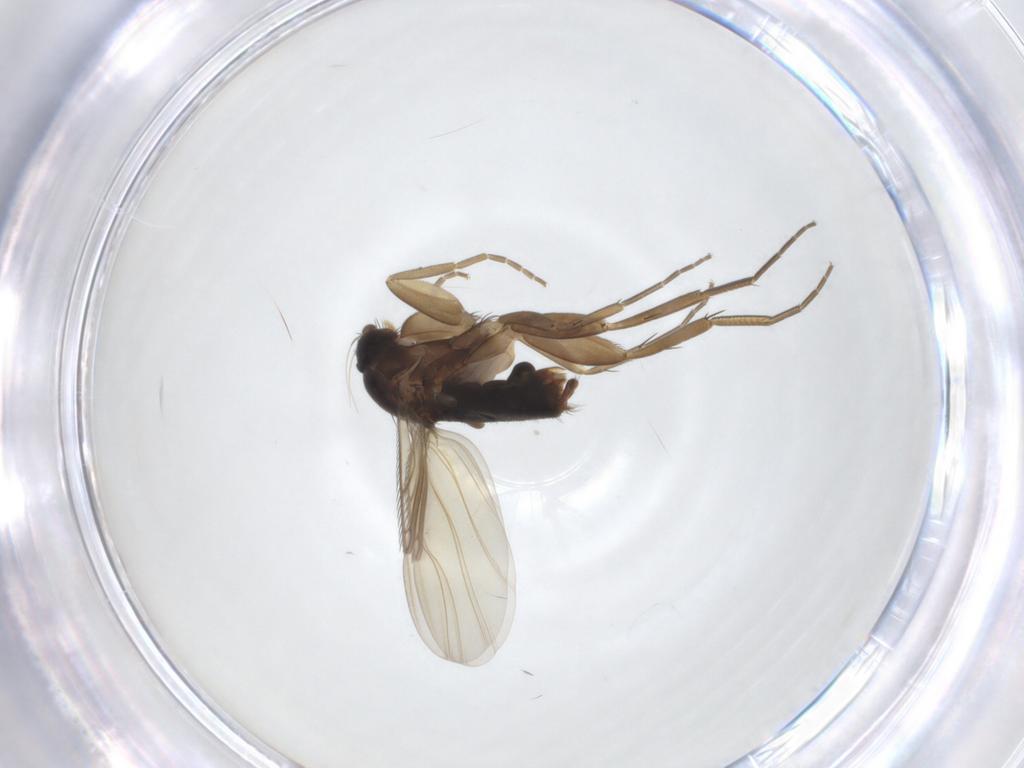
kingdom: Animalia
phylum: Arthropoda
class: Insecta
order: Diptera
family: Phoridae
